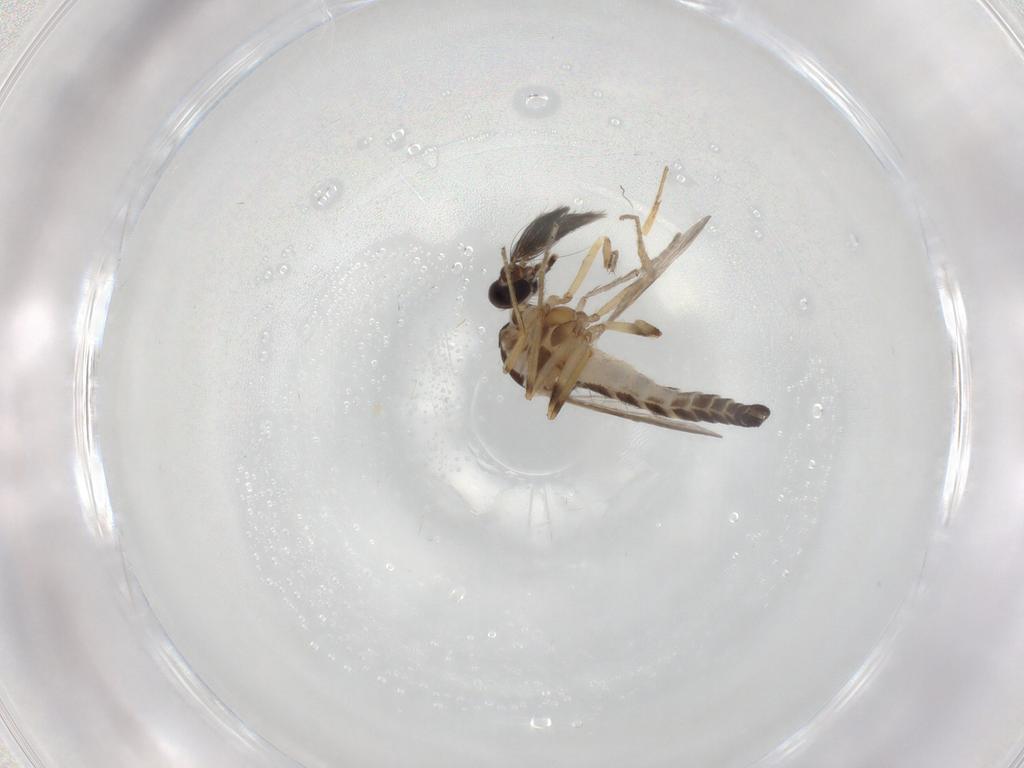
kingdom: Animalia
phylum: Arthropoda
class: Insecta
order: Diptera
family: Ceratopogonidae
